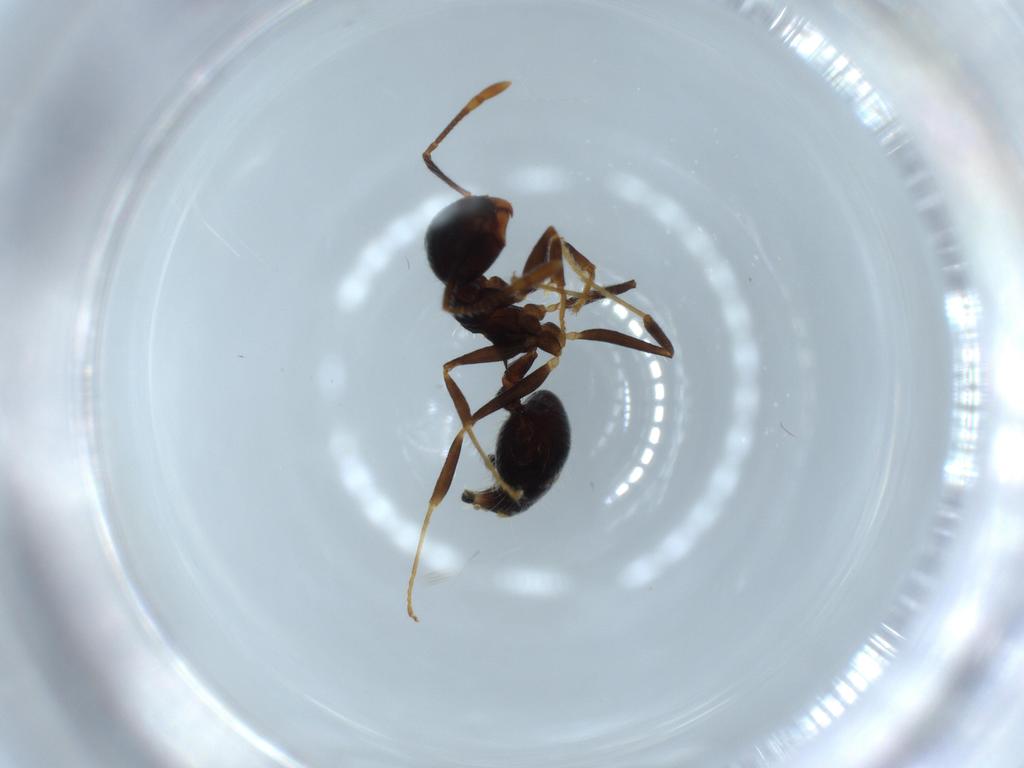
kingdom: Animalia
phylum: Arthropoda
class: Insecta
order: Hymenoptera
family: Formicidae
